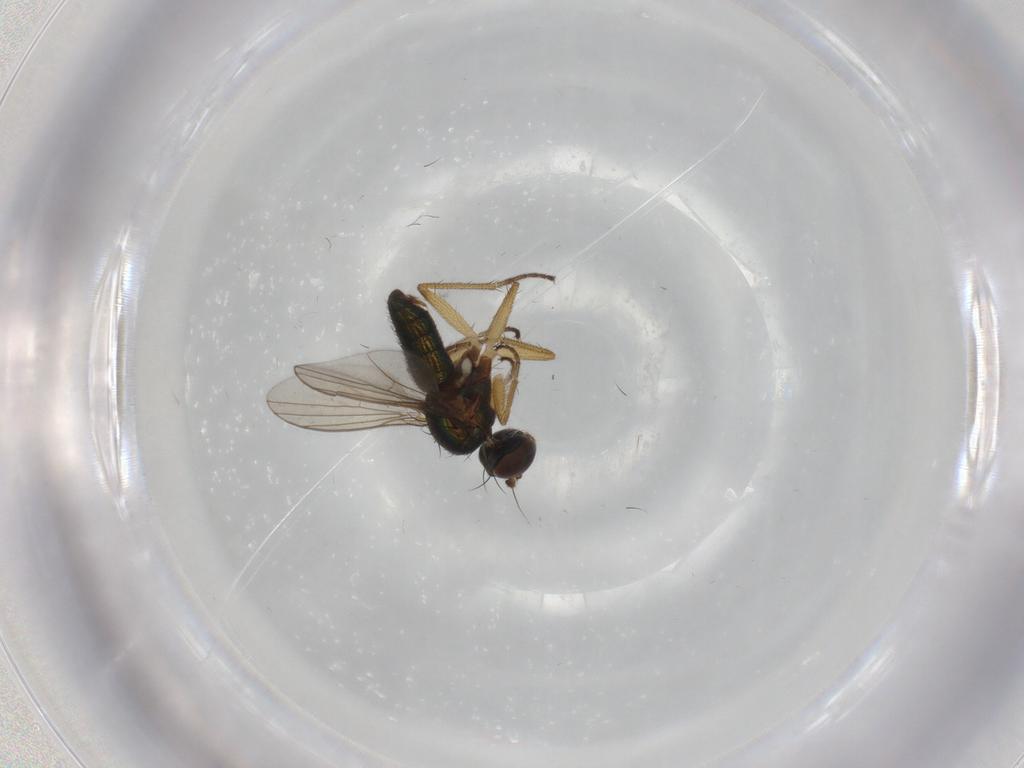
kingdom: Animalia
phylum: Arthropoda
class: Insecta
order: Diptera
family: Dolichopodidae
